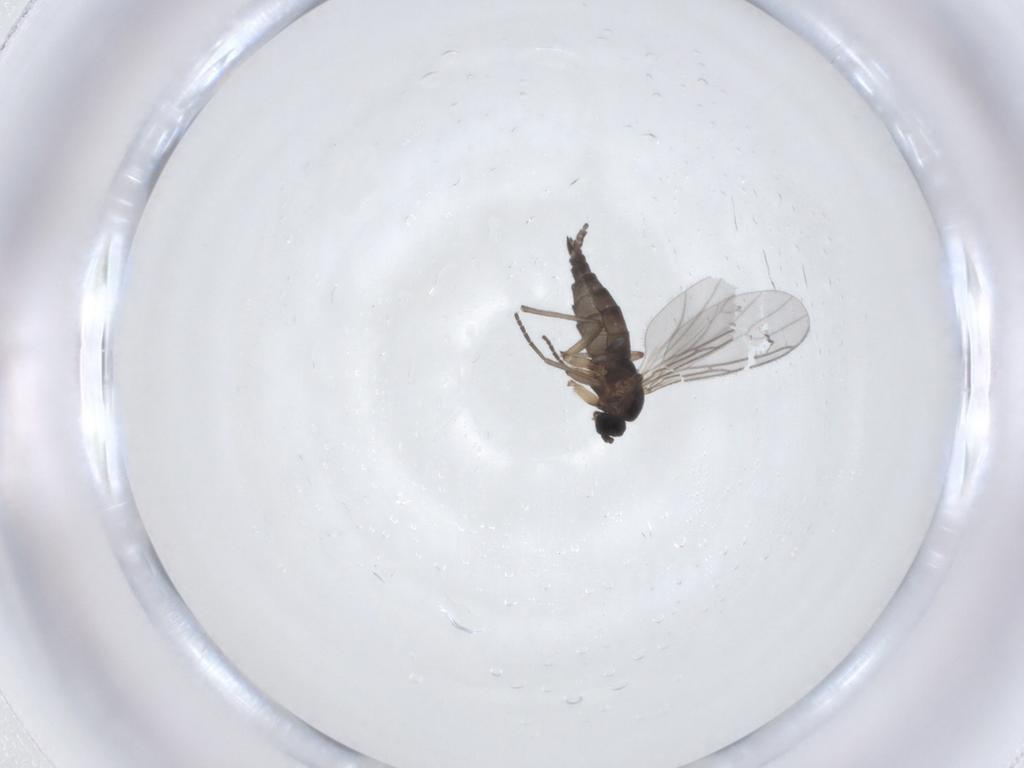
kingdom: Animalia
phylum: Arthropoda
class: Insecta
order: Diptera
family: Sciaridae
